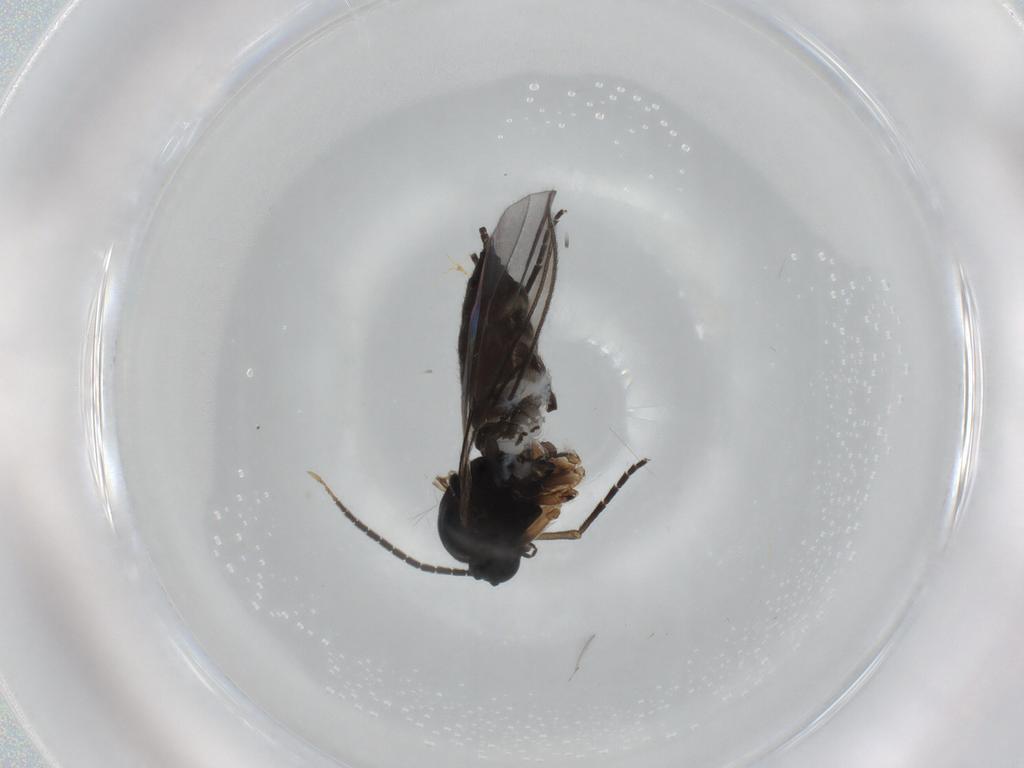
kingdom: Animalia
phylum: Arthropoda
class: Insecta
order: Diptera
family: Sciaridae
